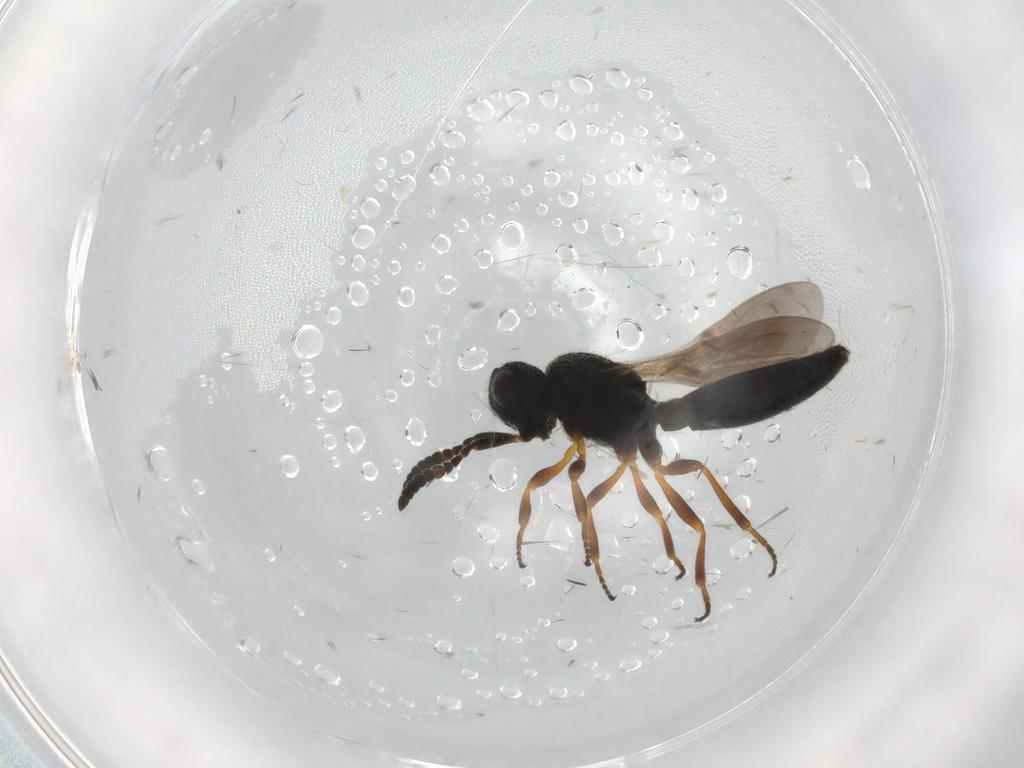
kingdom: Animalia
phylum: Arthropoda
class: Insecta
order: Hymenoptera
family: Scelionidae
